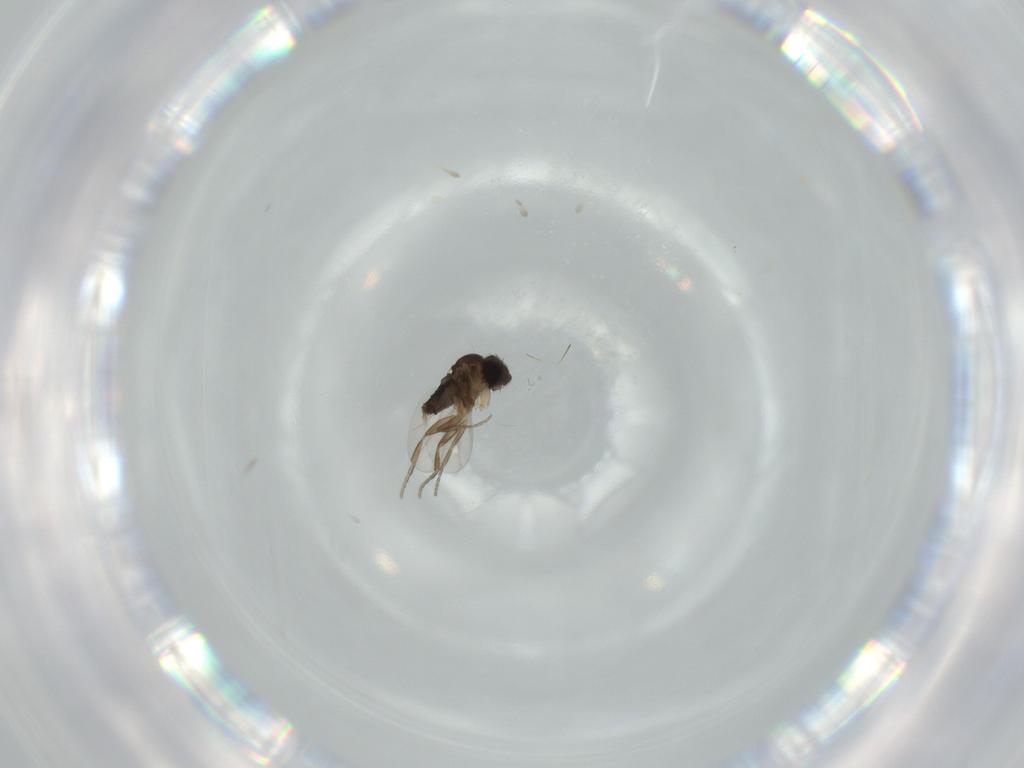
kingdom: Animalia
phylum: Arthropoda
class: Insecta
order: Diptera
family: Phoridae
